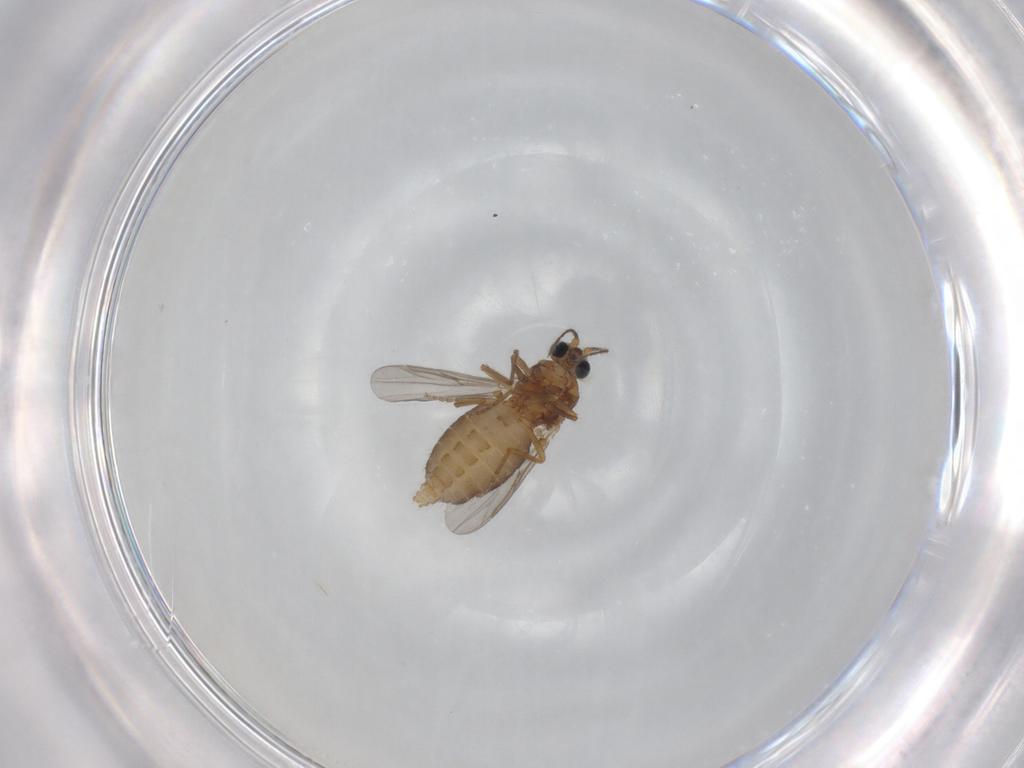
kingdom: Animalia
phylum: Arthropoda
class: Insecta
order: Diptera
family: Ceratopogonidae
